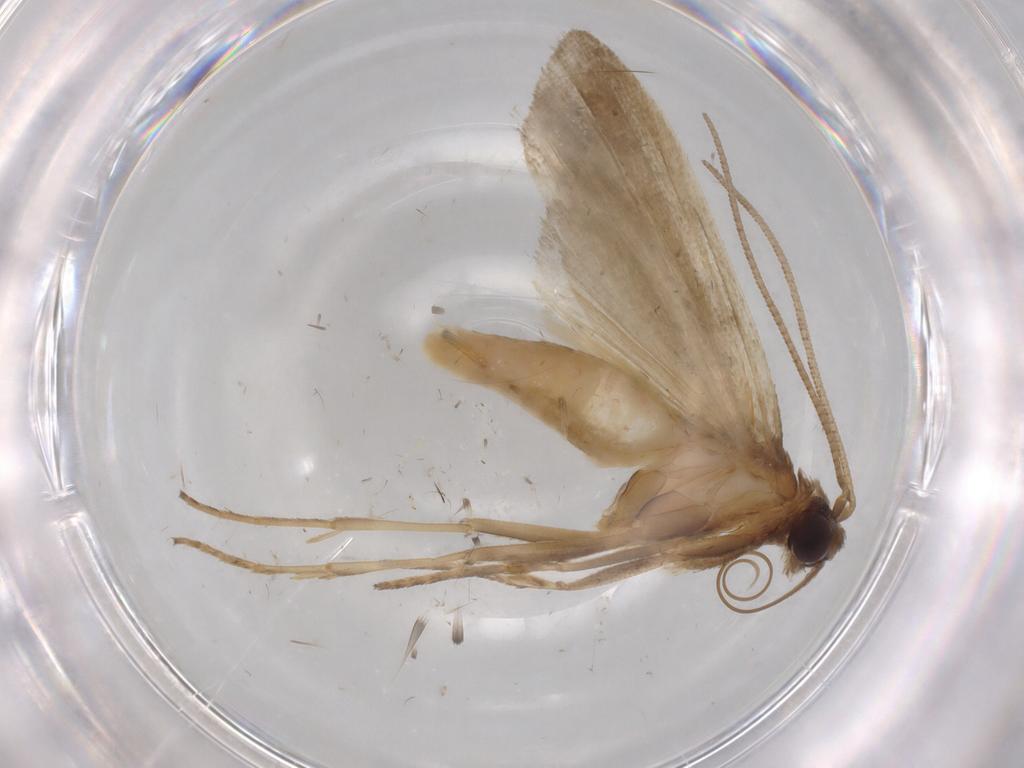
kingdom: Animalia
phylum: Arthropoda
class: Insecta
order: Lepidoptera
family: Noctuidae
